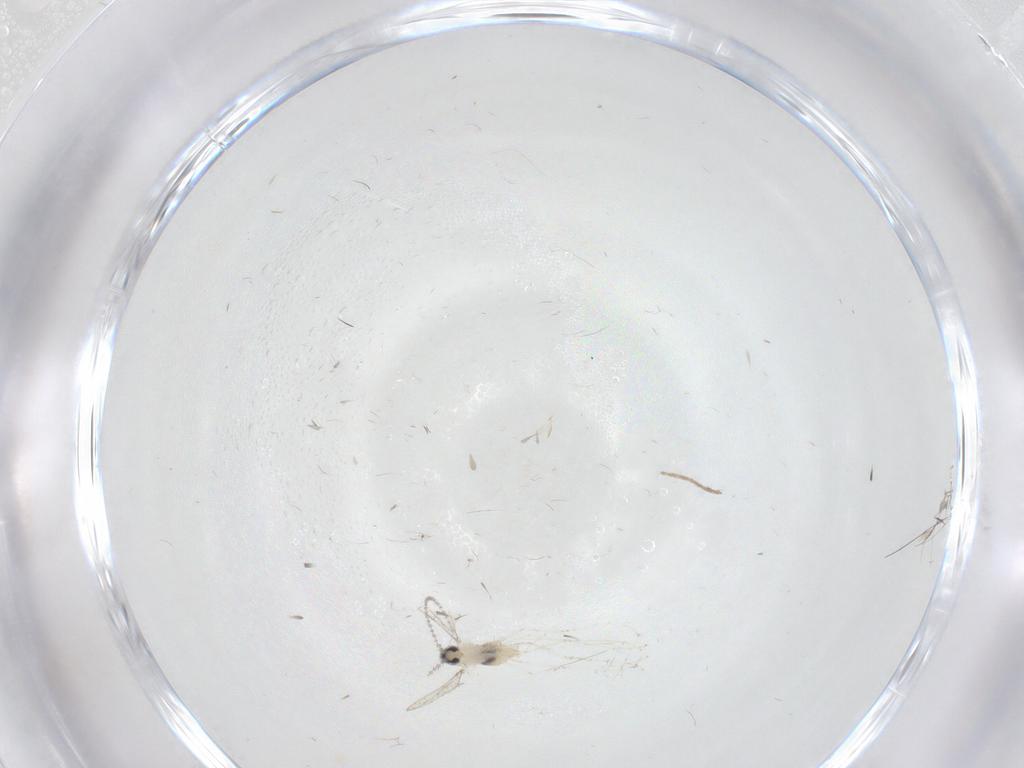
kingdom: Animalia
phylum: Arthropoda
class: Insecta
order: Diptera
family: Chironomidae
